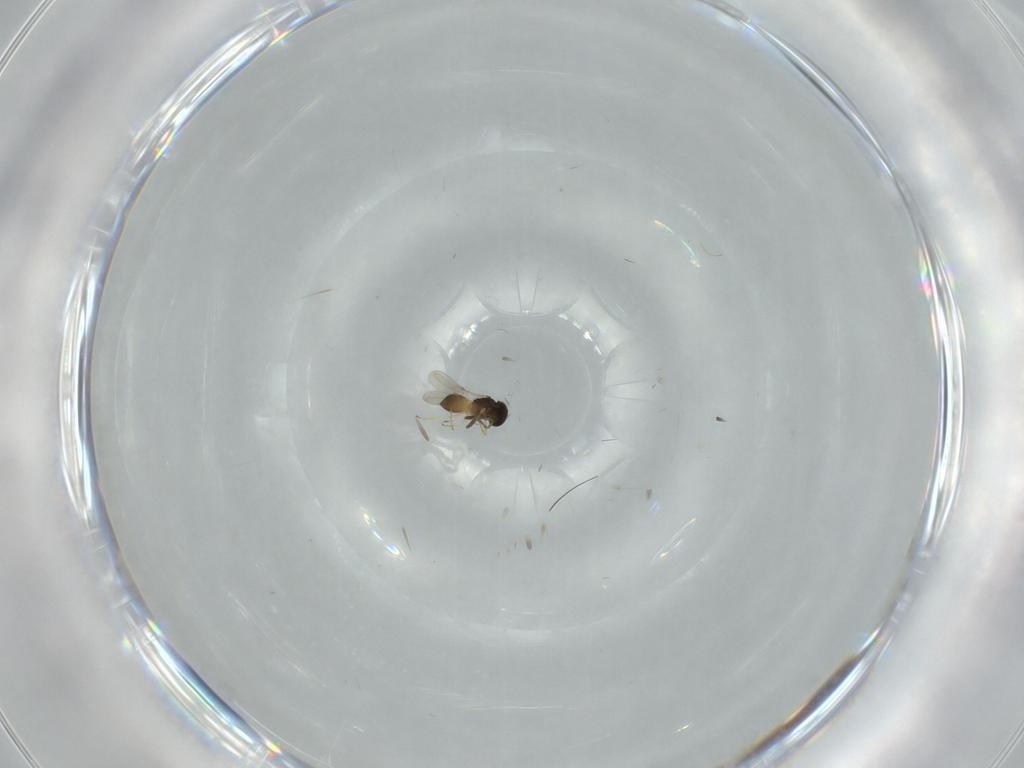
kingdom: Animalia
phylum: Arthropoda
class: Insecta
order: Hymenoptera
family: Scelionidae
